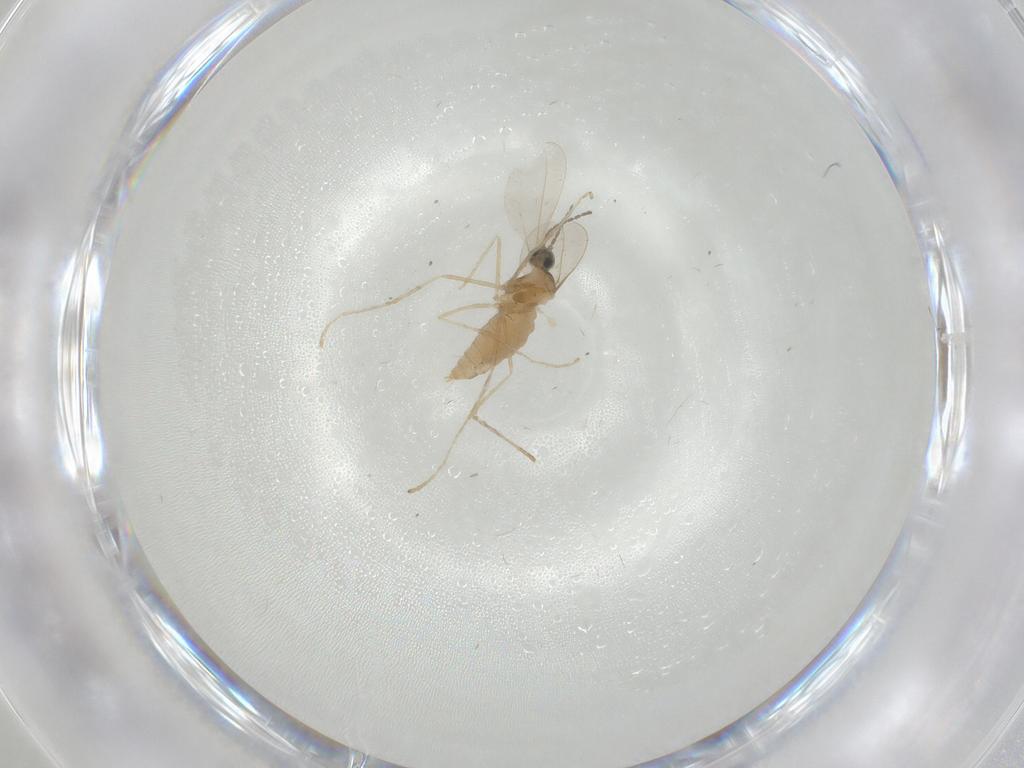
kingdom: Animalia
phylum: Arthropoda
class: Insecta
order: Diptera
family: Cecidomyiidae
